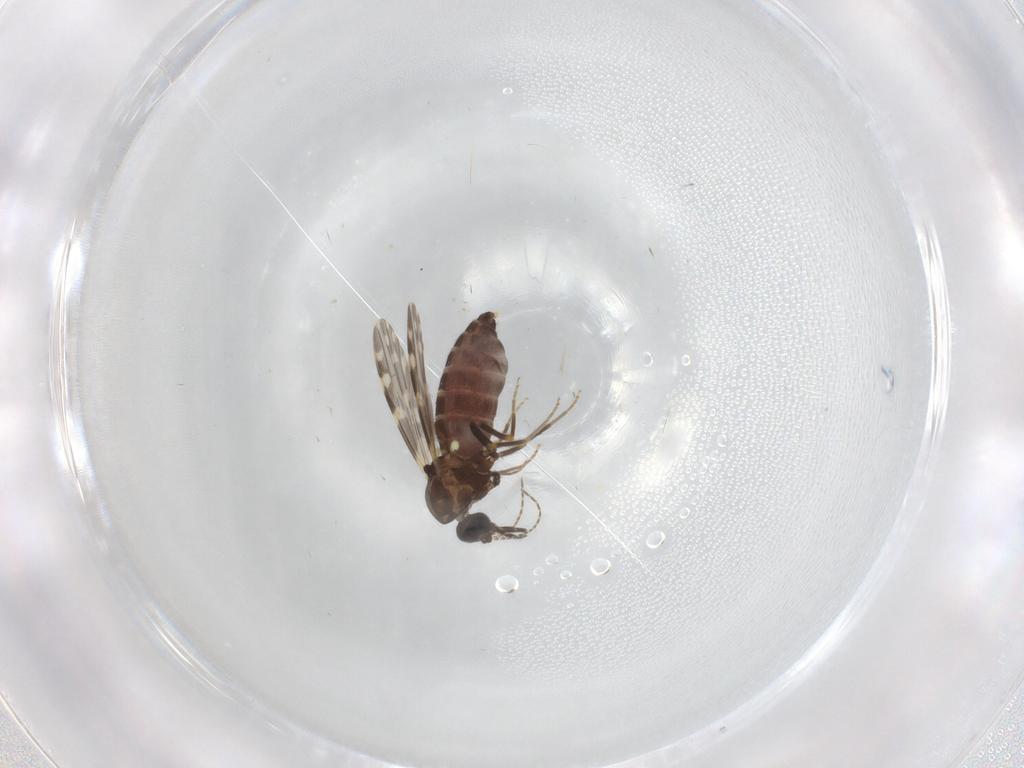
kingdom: Animalia
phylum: Arthropoda
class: Insecta
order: Diptera
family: Ceratopogonidae
